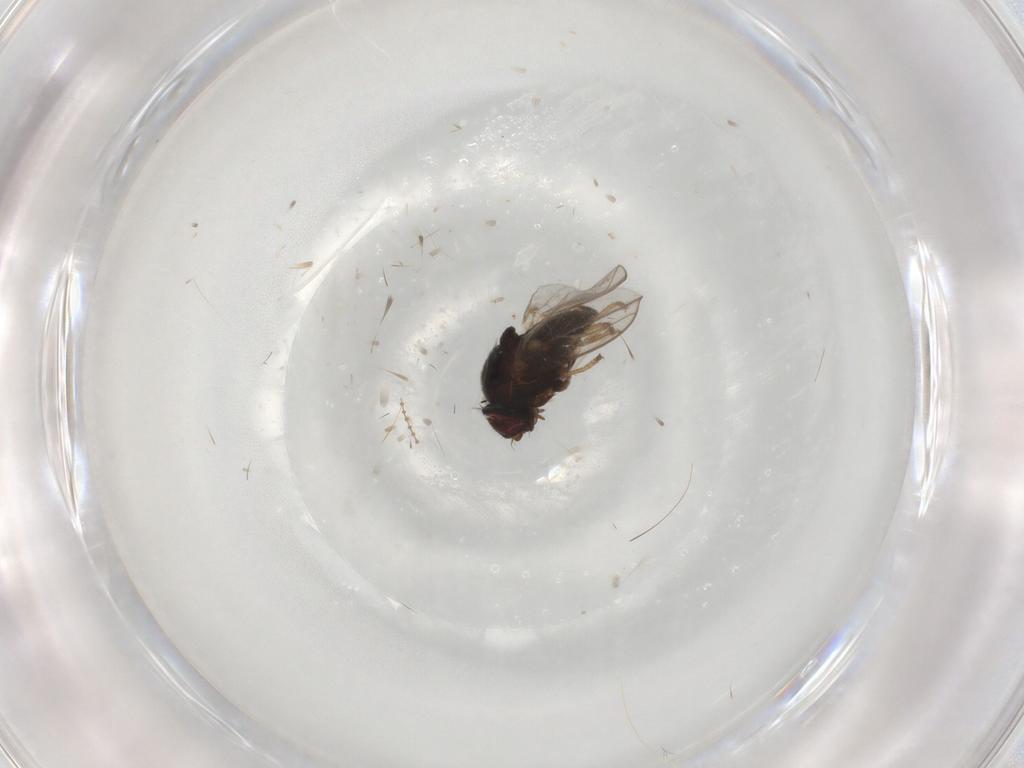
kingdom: Animalia
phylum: Arthropoda
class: Insecta
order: Diptera
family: Chloropidae
